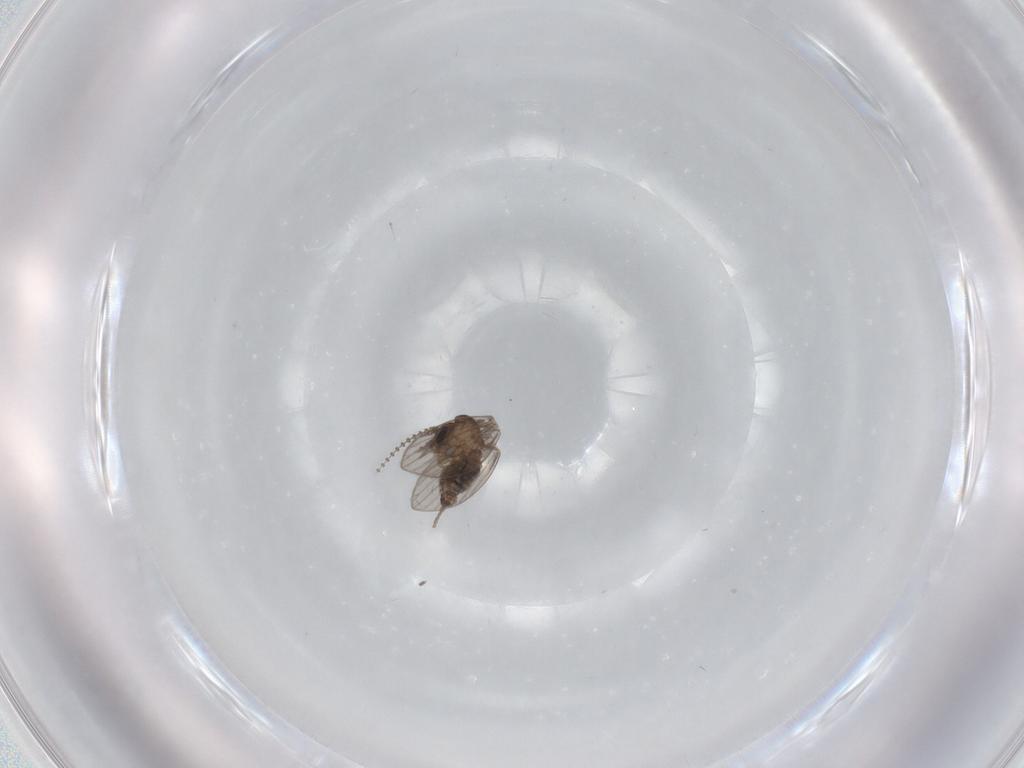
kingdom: Animalia
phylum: Arthropoda
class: Insecta
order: Diptera
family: Psychodidae
